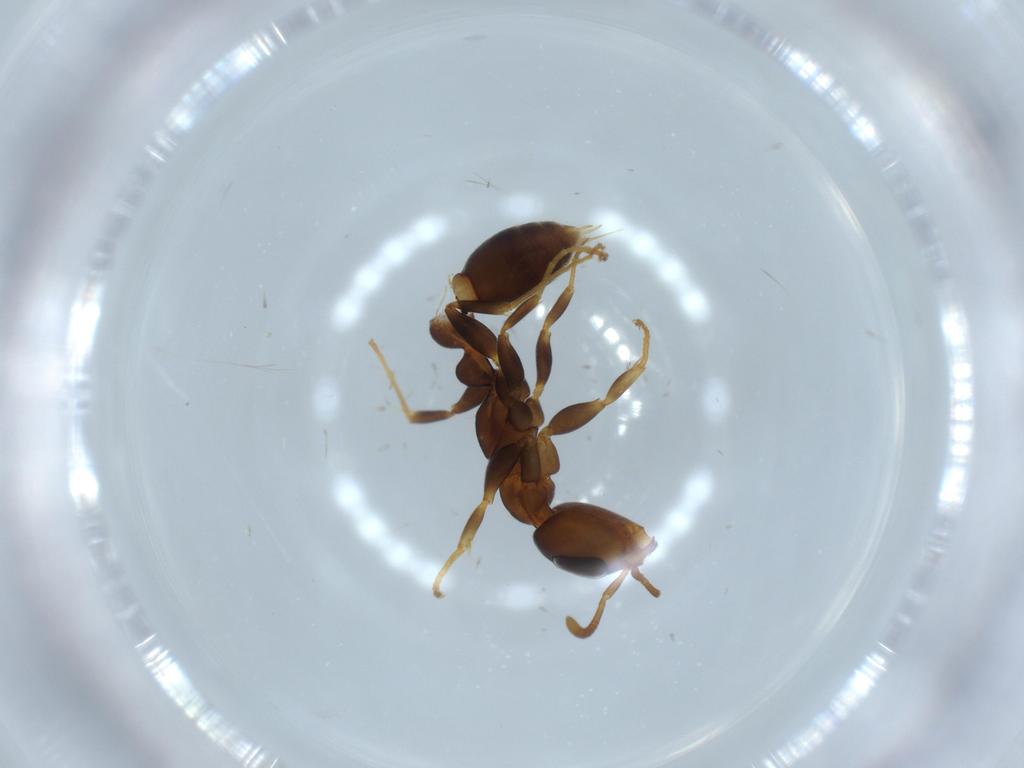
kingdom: Animalia
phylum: Arthropoda
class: Insecta
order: Hymenoptera
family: Formicidae
